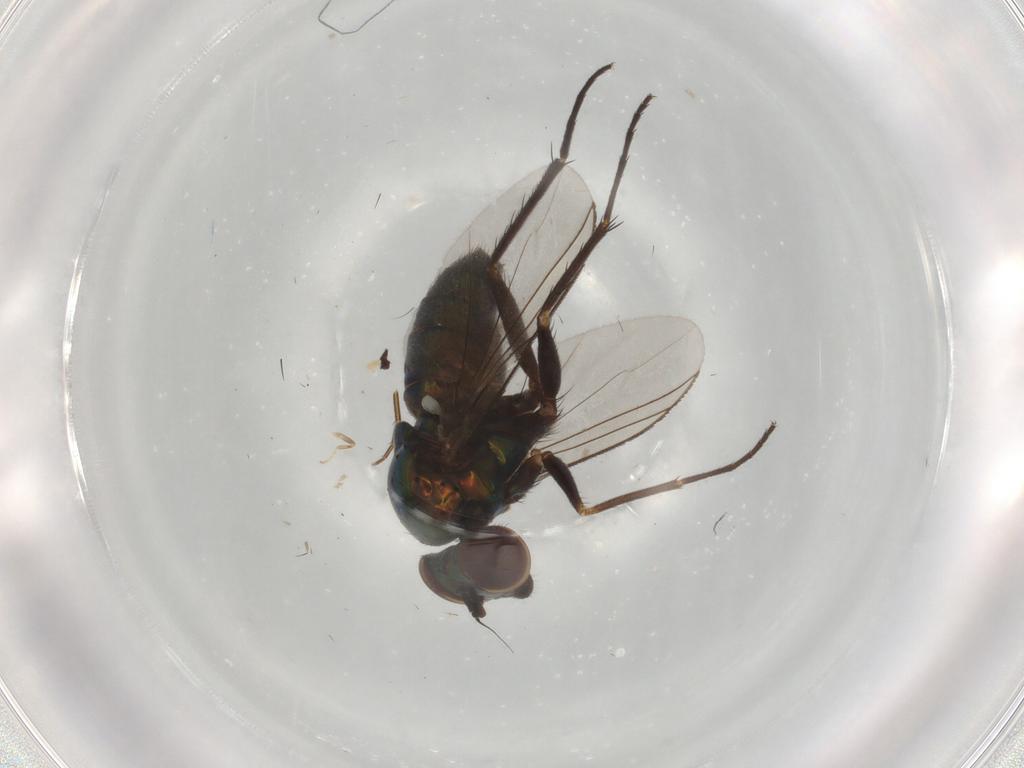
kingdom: Animalia
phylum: Arthropoda
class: Insecta
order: Diptera
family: Dolichopodidae
